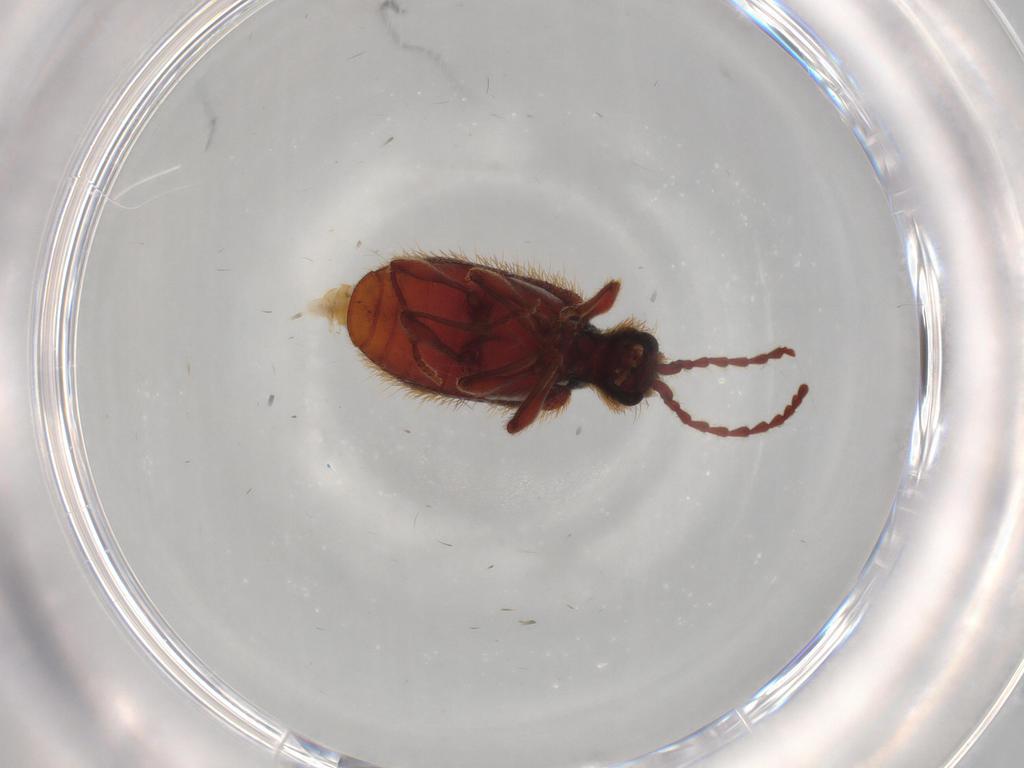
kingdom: Animalia
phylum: Arthropoda
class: Insecta
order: Coleoptera
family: Ptinidae
